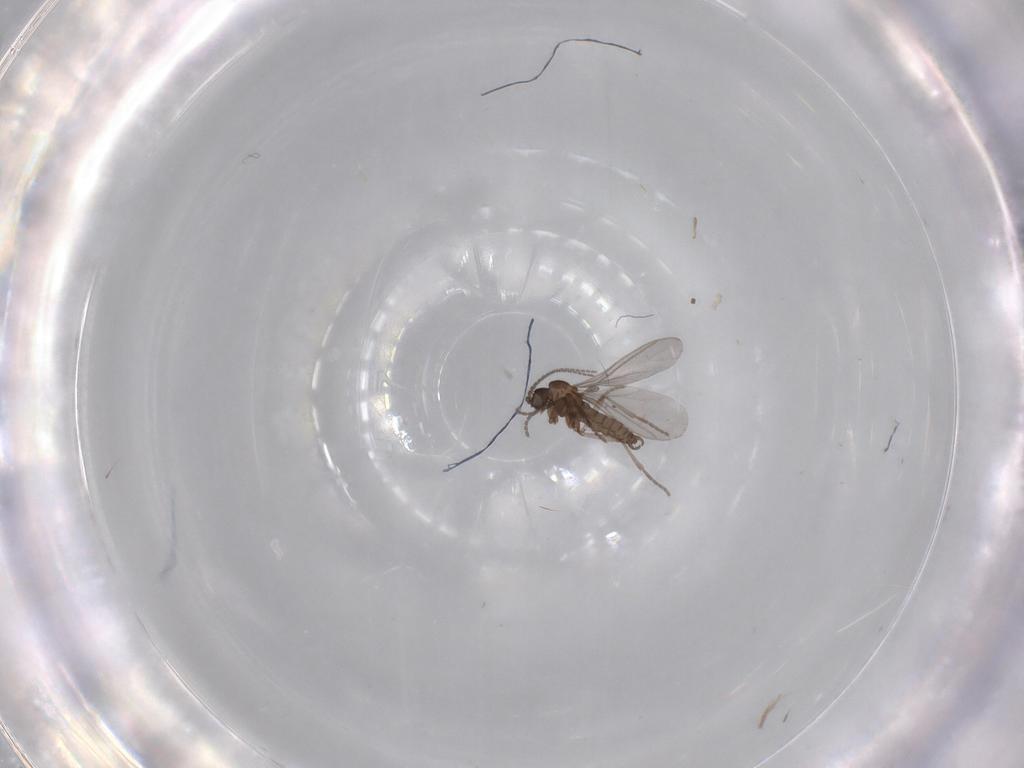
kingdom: Animalia
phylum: Arthropoda
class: Insecta
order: Diptera
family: Sciaridae
